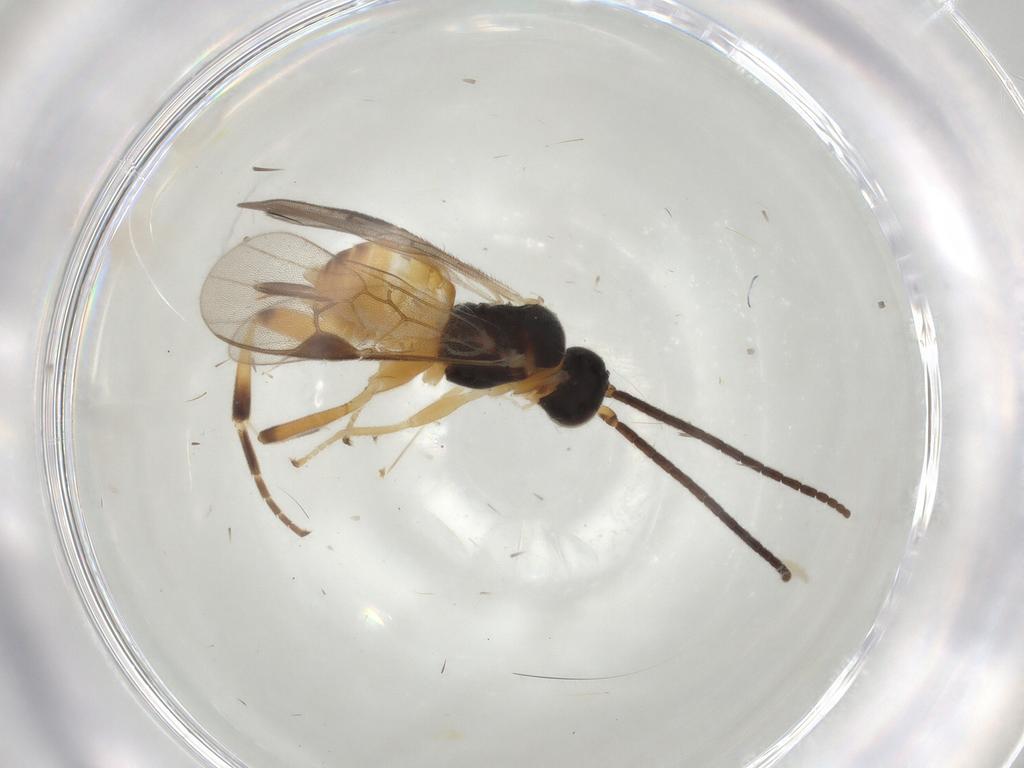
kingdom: Animalia
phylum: Arthropoda
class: Insecta
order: Hymenoptera
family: Braconidae
